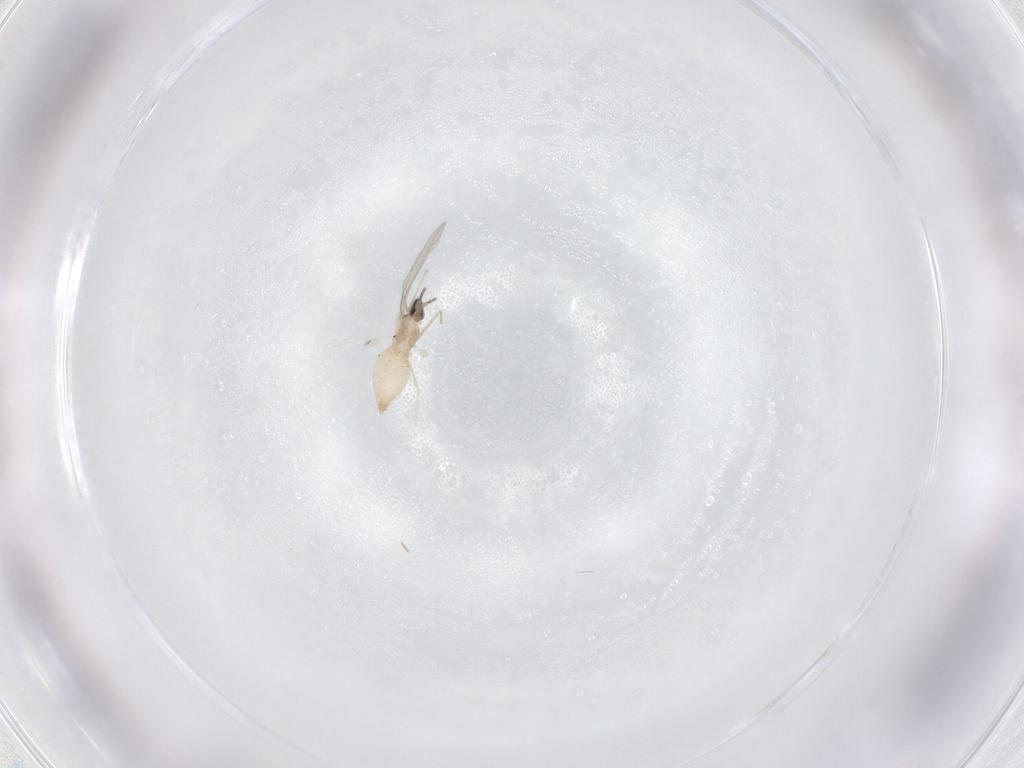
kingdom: Animalia
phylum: Arthropoda
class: Insecta
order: Diptera
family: Cecidomyiidae
